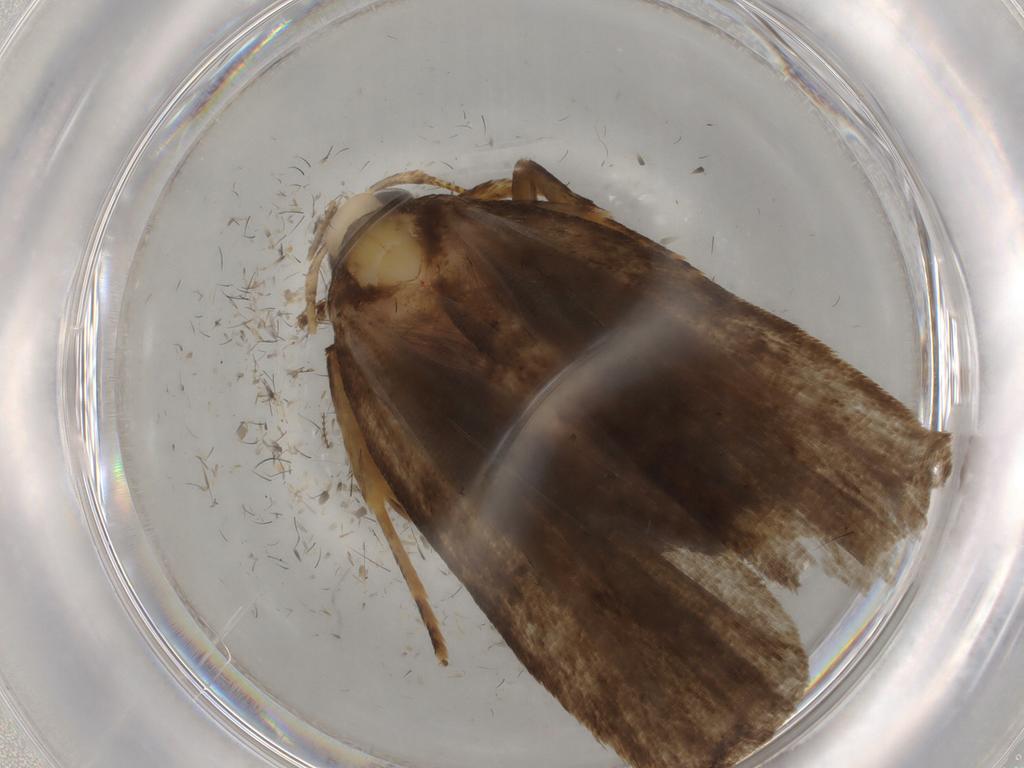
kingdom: Animalia
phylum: Arthropoda
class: Insecta
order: Lepidoptera
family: Autostichidae
